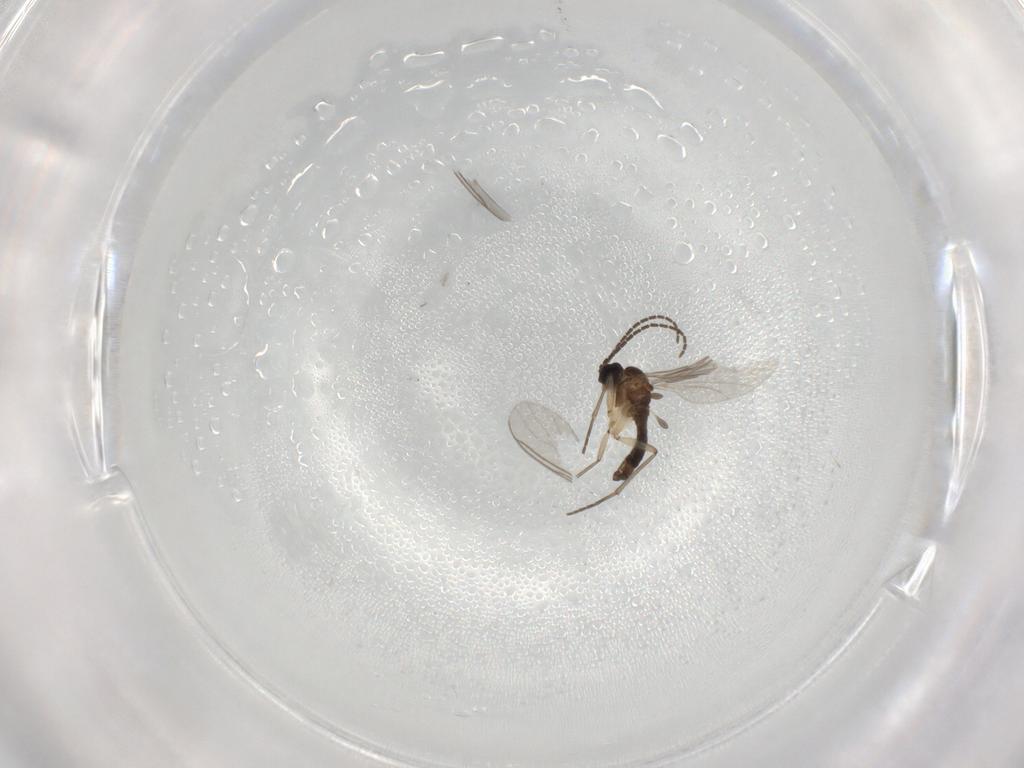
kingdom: Animalia
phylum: Arthropoda
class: Insecta
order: Diptera
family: Sciaridae
